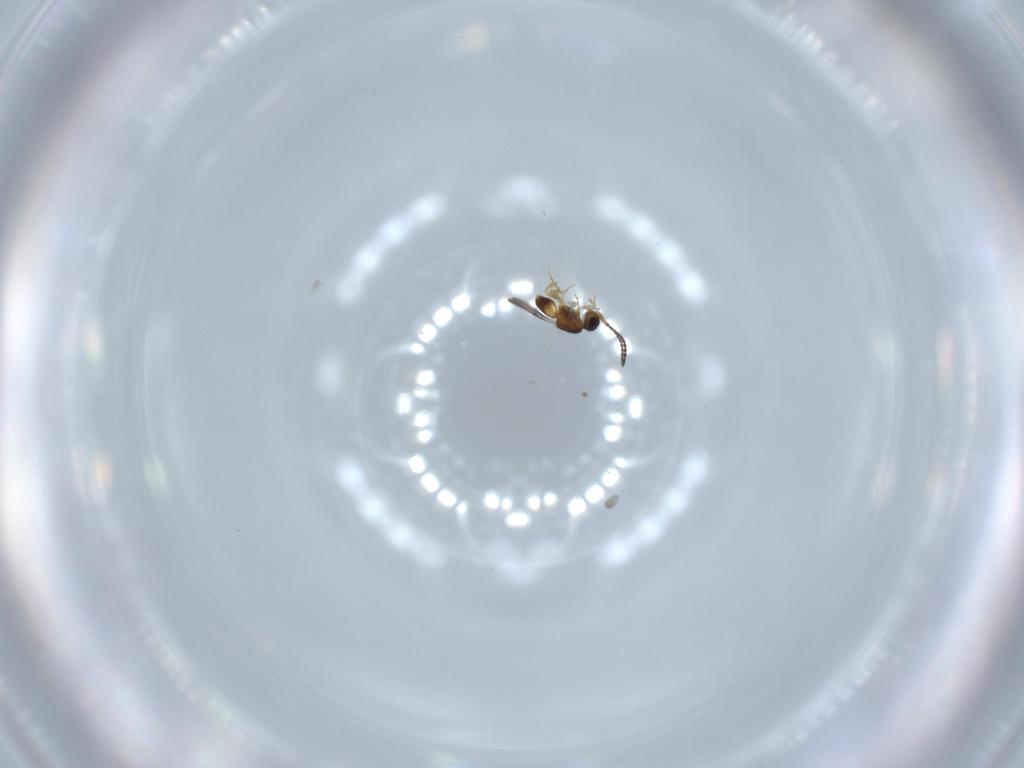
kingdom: Animalia
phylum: Arthropoda
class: Insecta
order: Hymenoptera
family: Ceraphronidae
